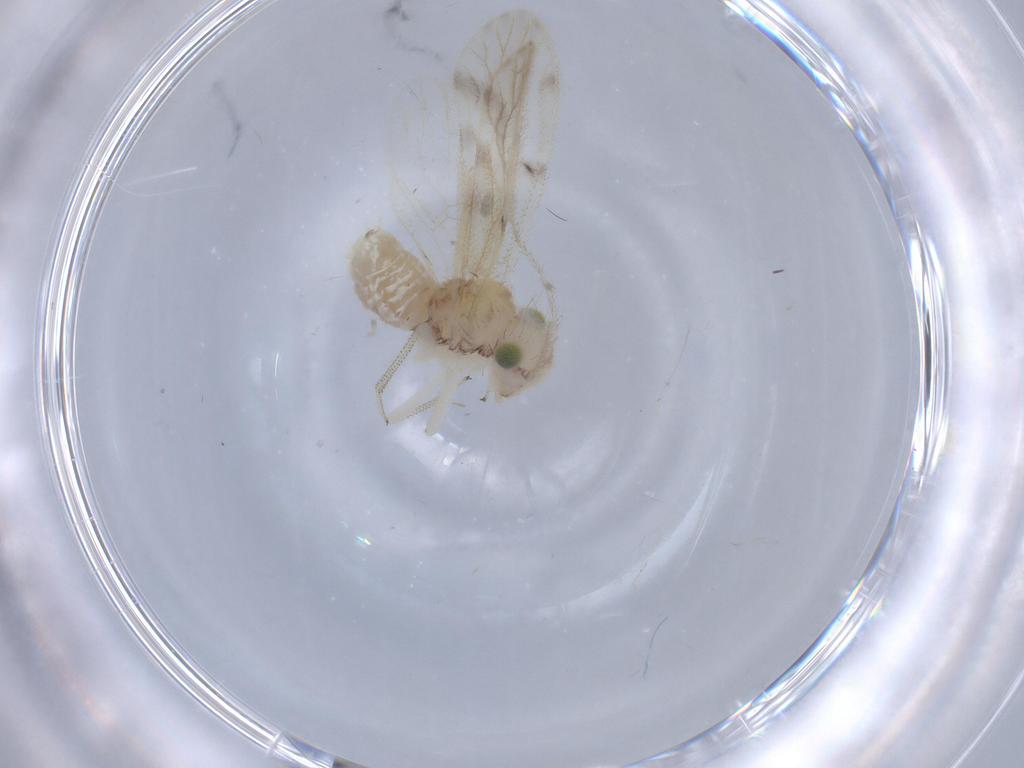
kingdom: Animalia
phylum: Arthropoda
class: Insecta
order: Psocodea
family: Pseudocaeciliidae
